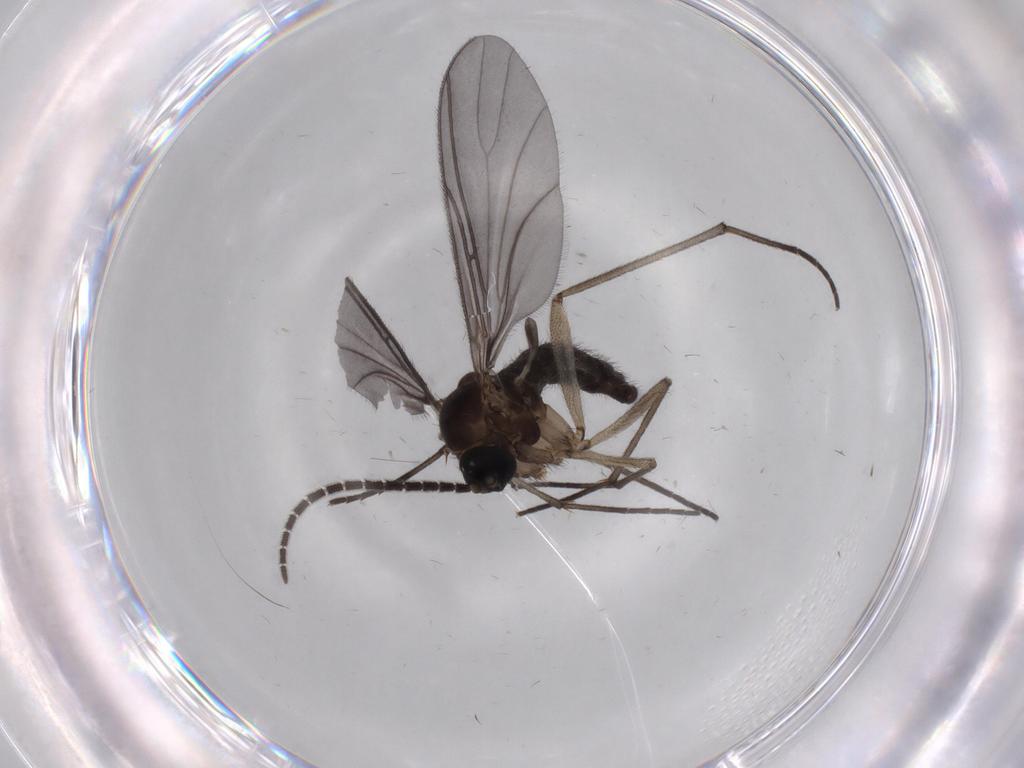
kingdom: Animalia
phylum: Arthropoda
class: Insecta
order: Diptera
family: Sciaridae
